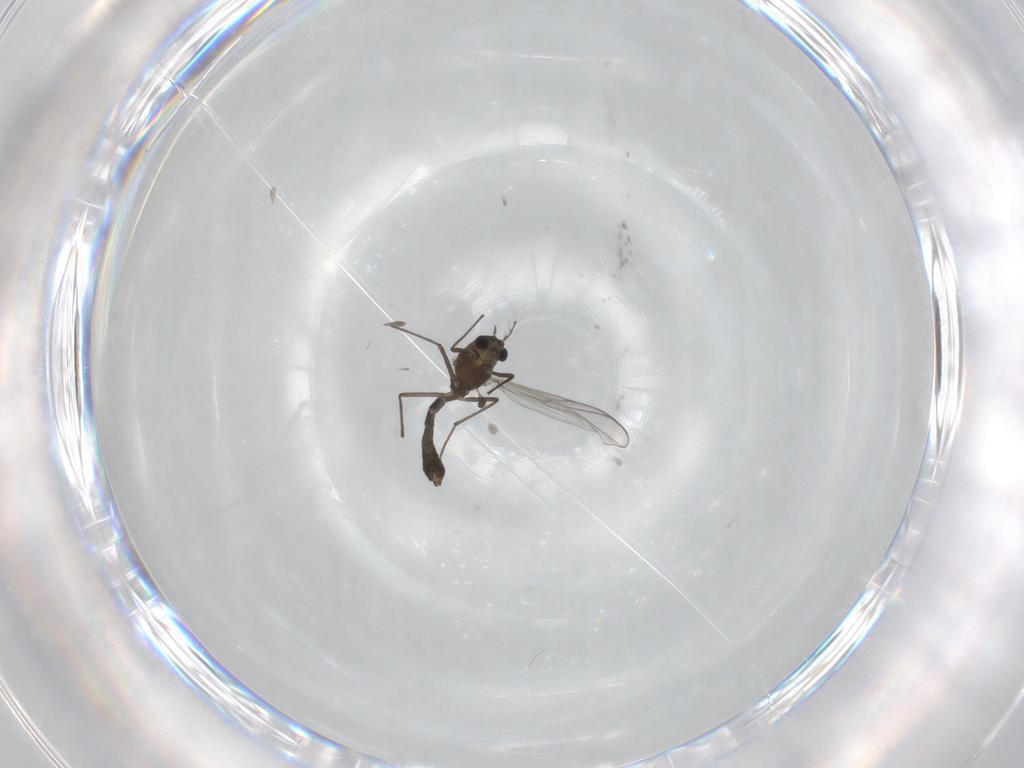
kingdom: Animalia
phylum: Arthropoda
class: Insecta
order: Diptera
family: Chironomidae
